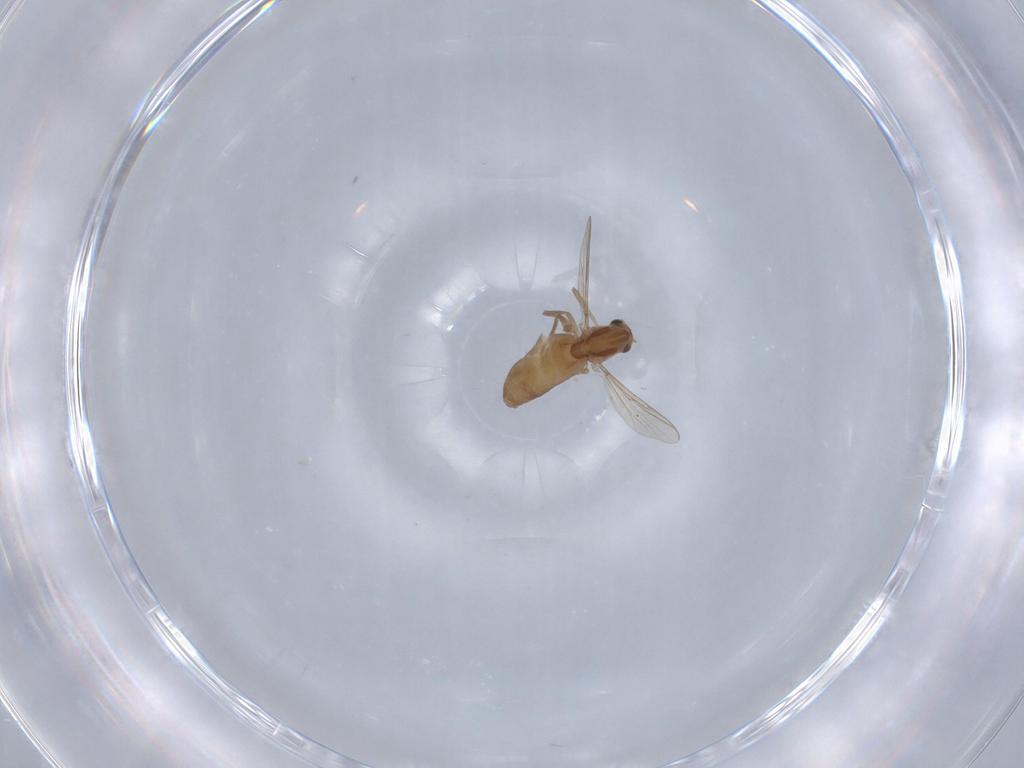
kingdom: Animalia
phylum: Arthropoda
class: Insecta
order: Diptera
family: Chironomidae
